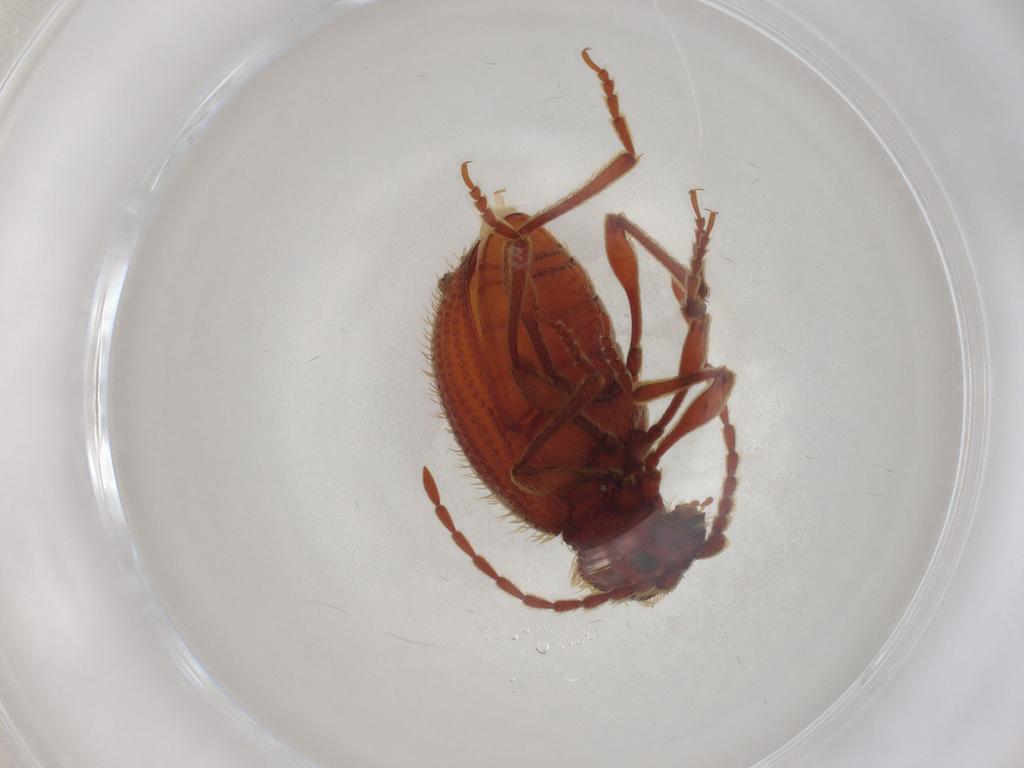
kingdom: Animalia
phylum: Arthropoda
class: Insecta
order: Coleoptera
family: Ptinidae
